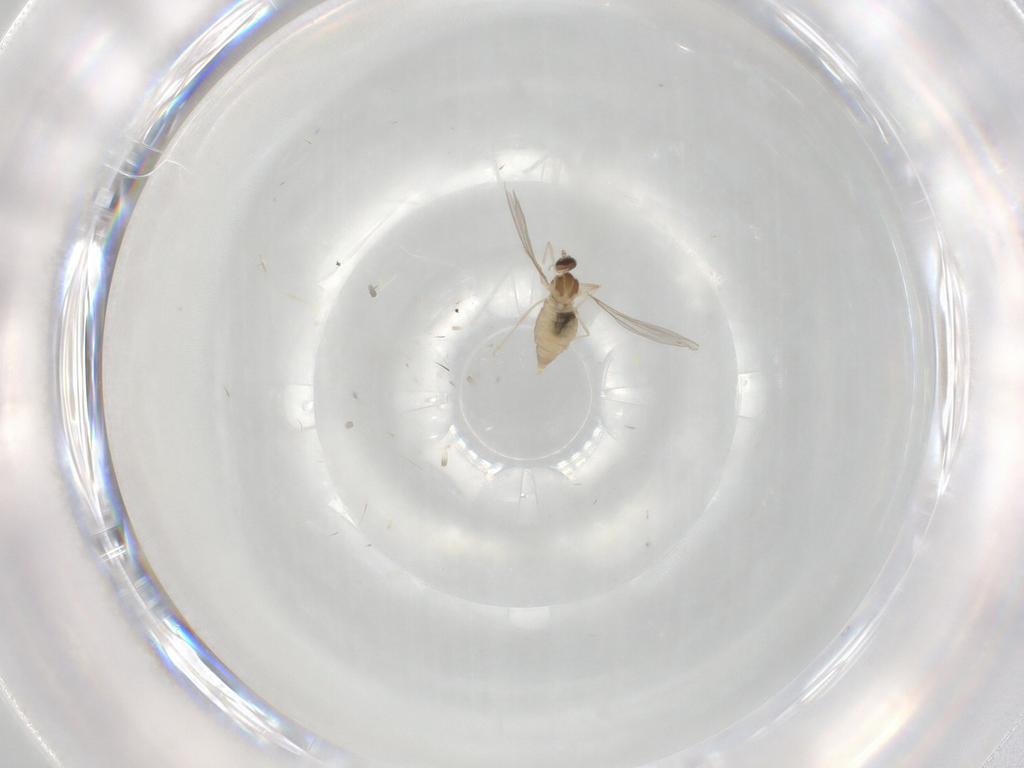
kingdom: Animalia
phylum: Arthropoda
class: Insecta
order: Diptera
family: Cecidomyiidae
